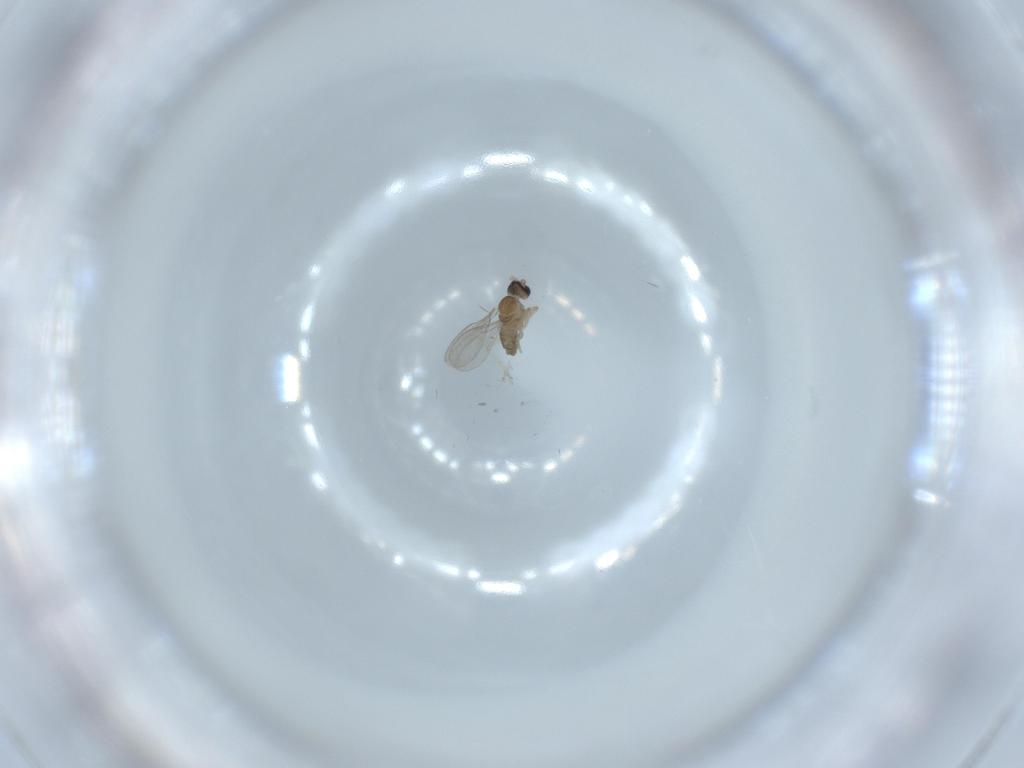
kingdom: Animalia
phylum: Arthropoda
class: Insecta
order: Diptera
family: Cecidomyiidae
